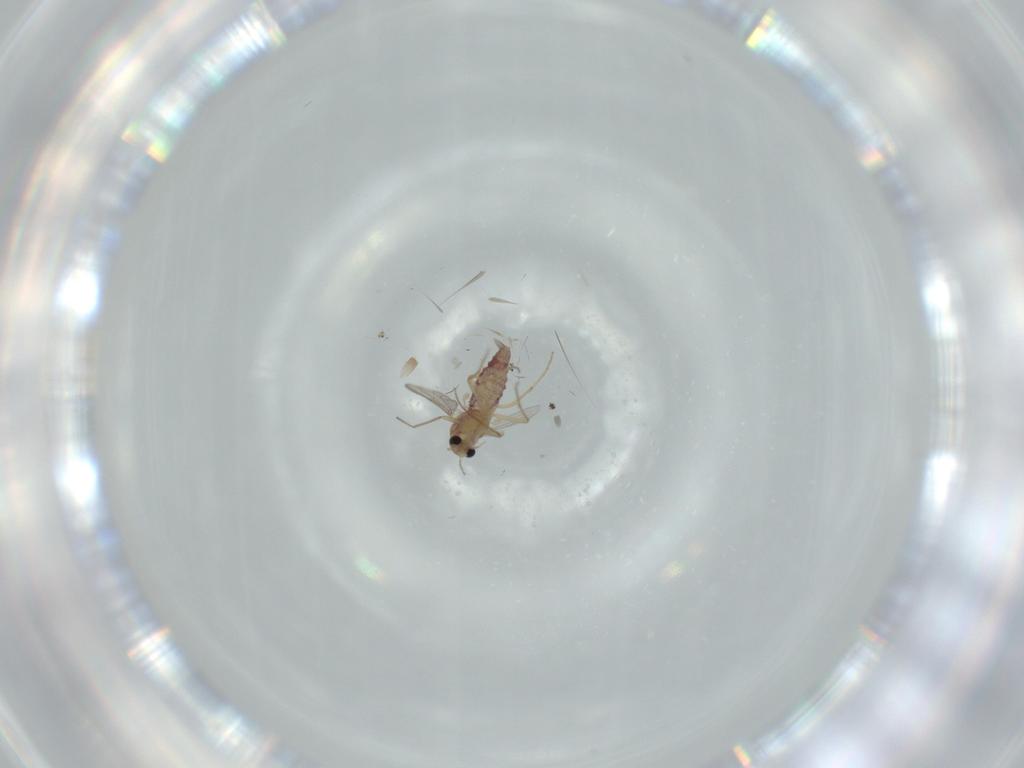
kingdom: Animalia
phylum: Arthropoda
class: Insecta
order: Diptera
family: Chironomidae
